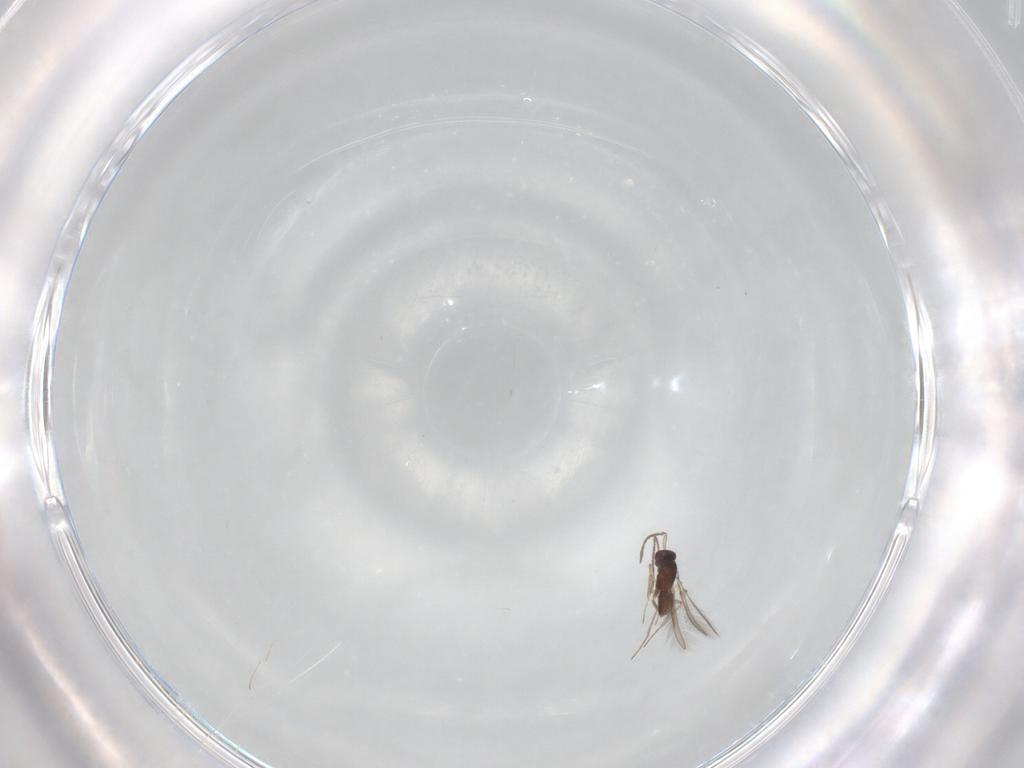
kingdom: Animalia
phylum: Arthropoda
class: Insecta
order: Hymenoptera
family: Mymaridae
